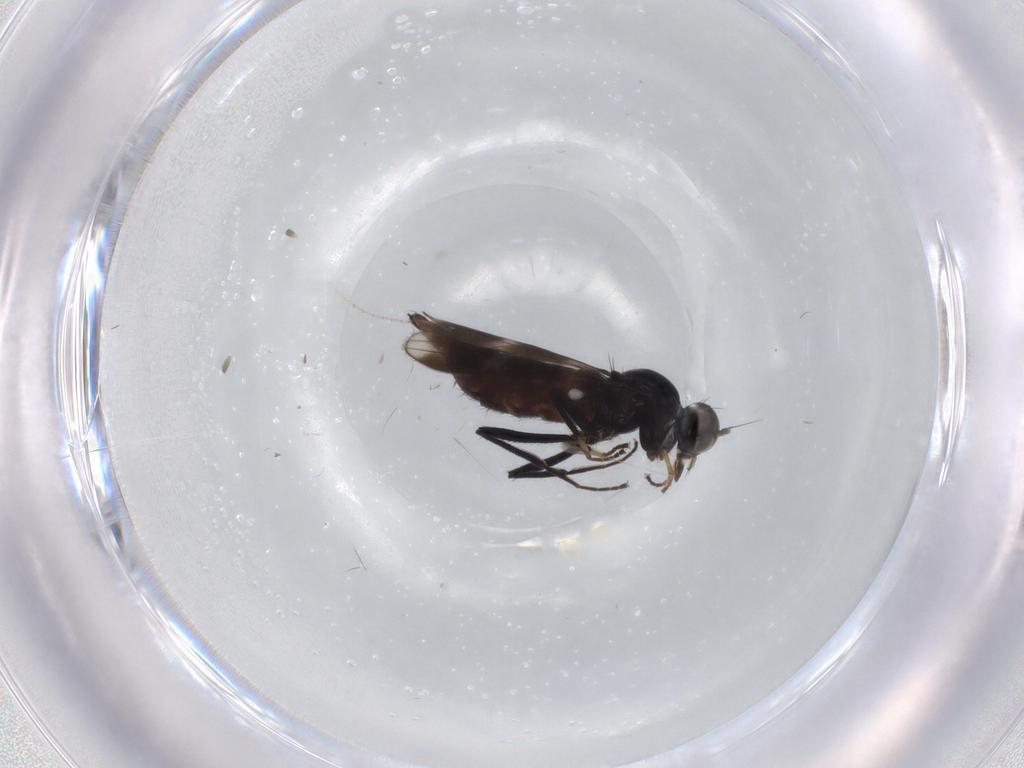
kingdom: Animalia
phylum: Arthropoda
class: Insecta
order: Diptera
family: Hybotidae
